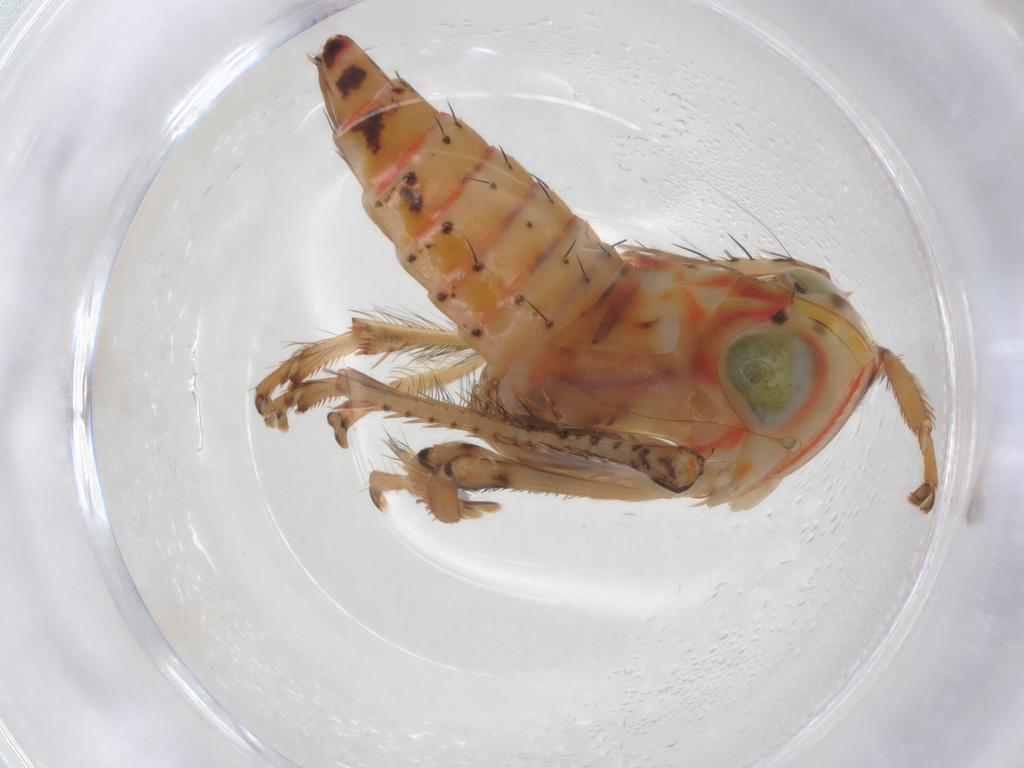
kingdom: Animalia
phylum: Arthropoda
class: Insecta
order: Hemiptera
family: Cicadellidae
